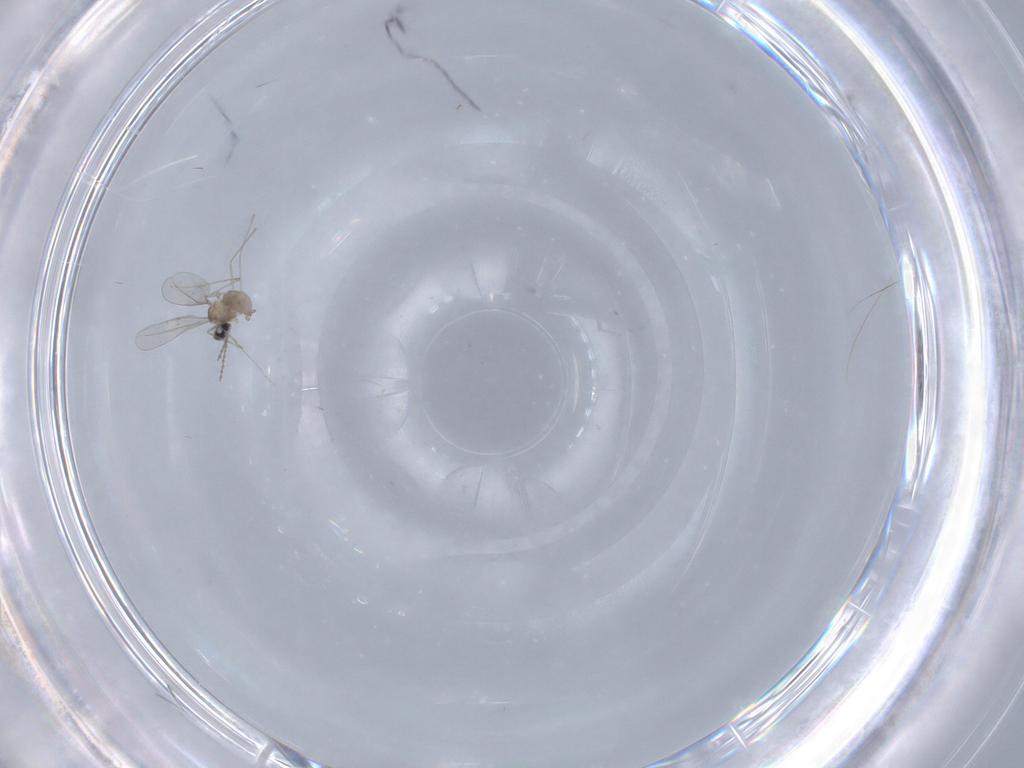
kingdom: Animalia
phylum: Arthropoda
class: Insecta
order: Diptera
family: Cecidomyiidae
